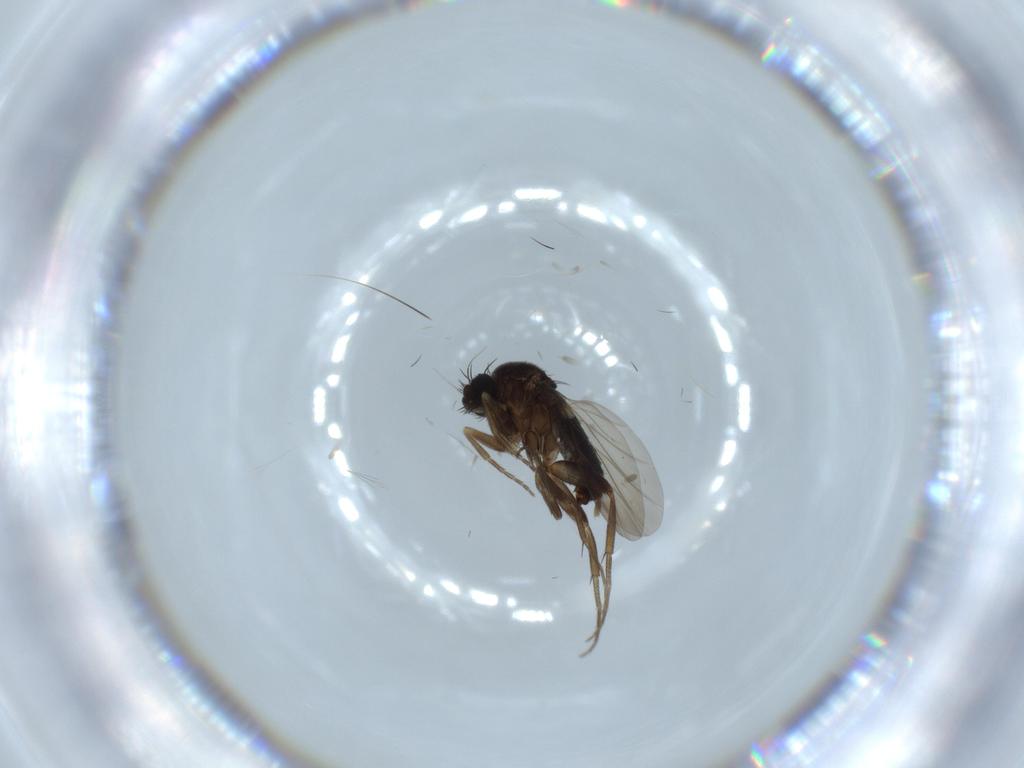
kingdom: Animalia
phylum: Arthropoda
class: Insecta
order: Diptera
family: Phoridae
